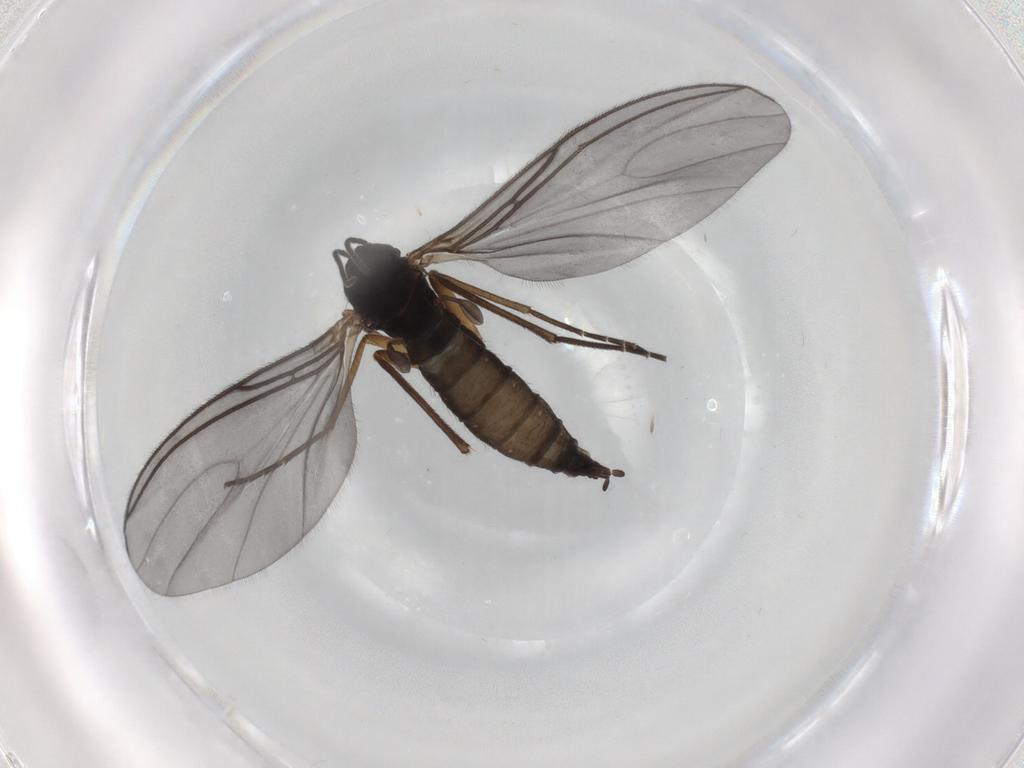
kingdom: Animalia
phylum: Arthropoda
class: Insecta
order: Diptera
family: Sciaridae
